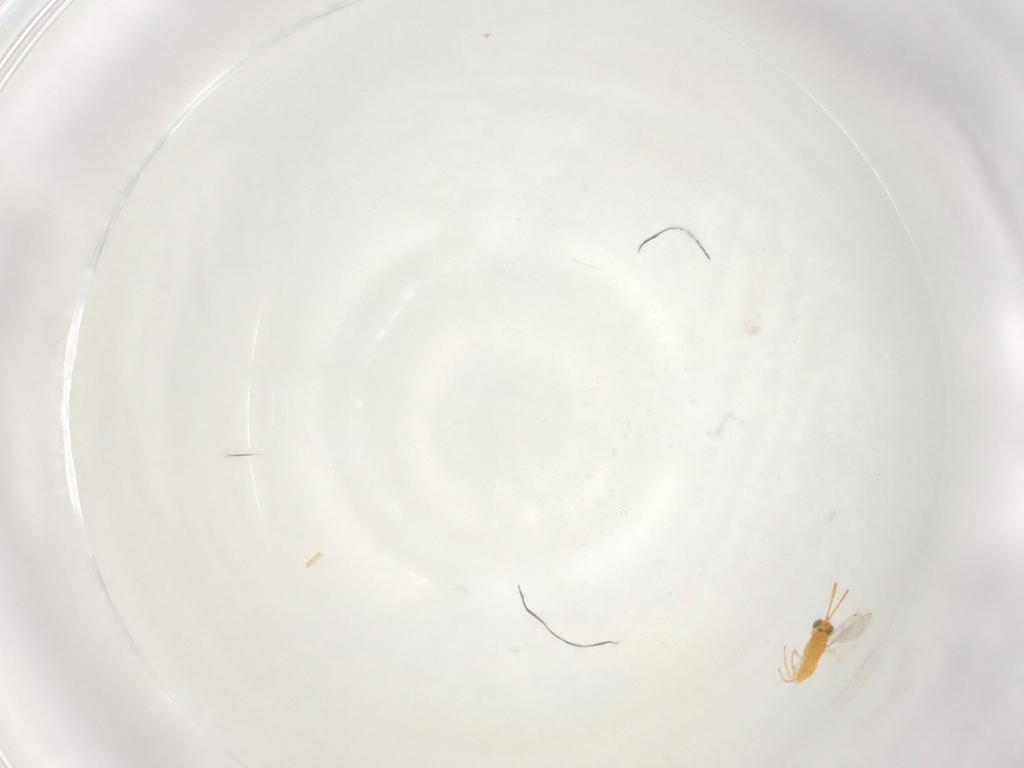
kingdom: Animalia
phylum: Arthropoda
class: Insecta
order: Hymenoptera
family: Aphelinidae
